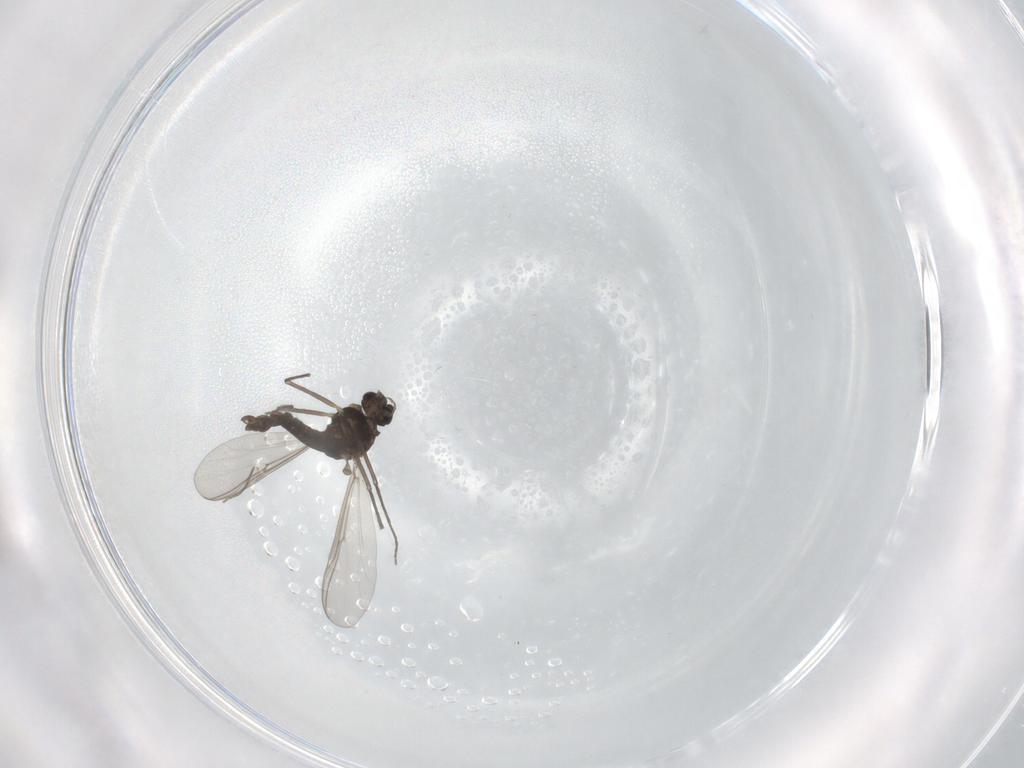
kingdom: Animalia
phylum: Arthropoda
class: Insecta
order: Diptera
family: Chironomidae
